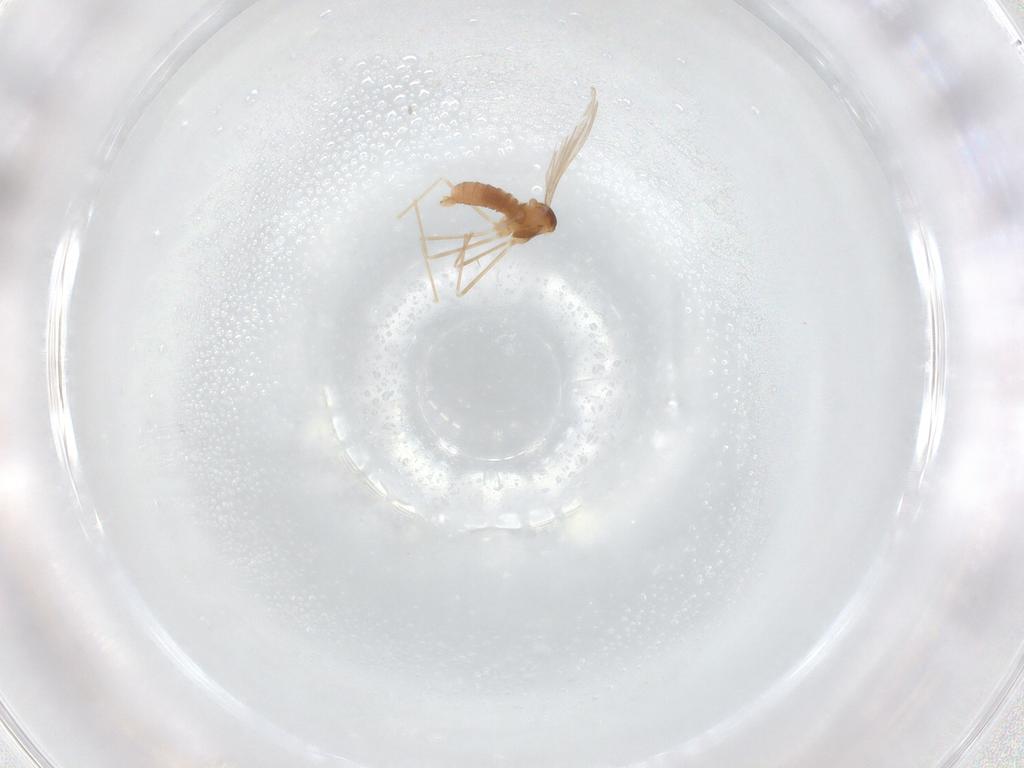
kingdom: Animalia
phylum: Arthropoda
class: Insecta
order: Diptera
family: Cecidomyiidae
